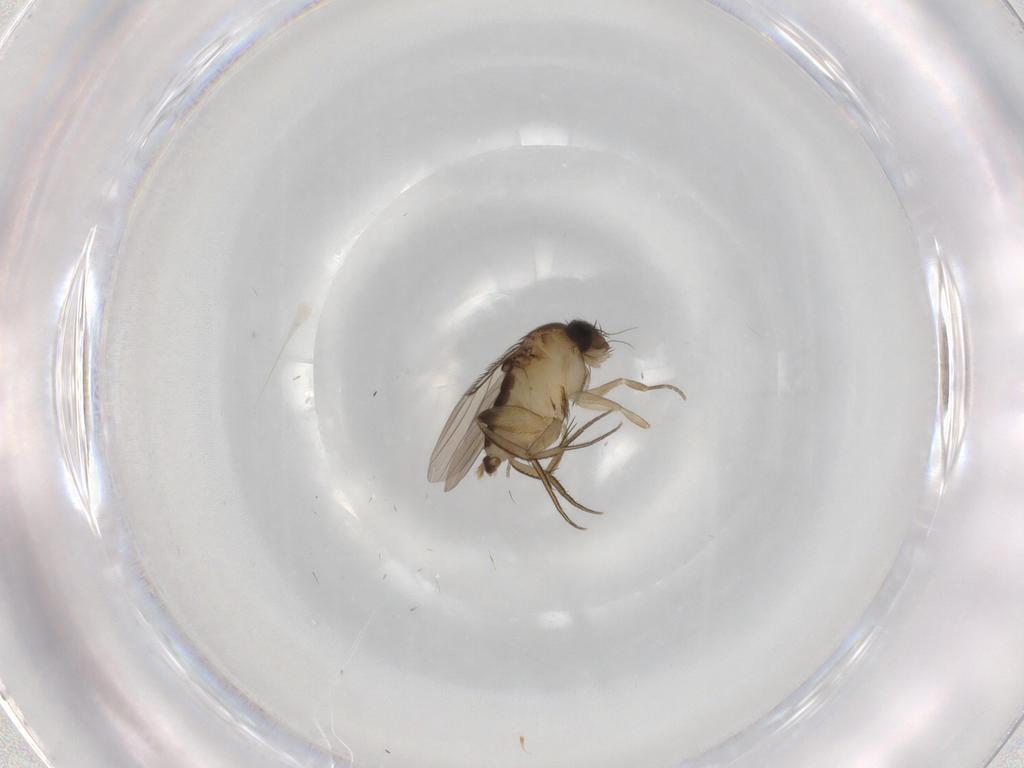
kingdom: Animalia
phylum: Arthropoda
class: Insecta
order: Diptera
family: Phoridae
